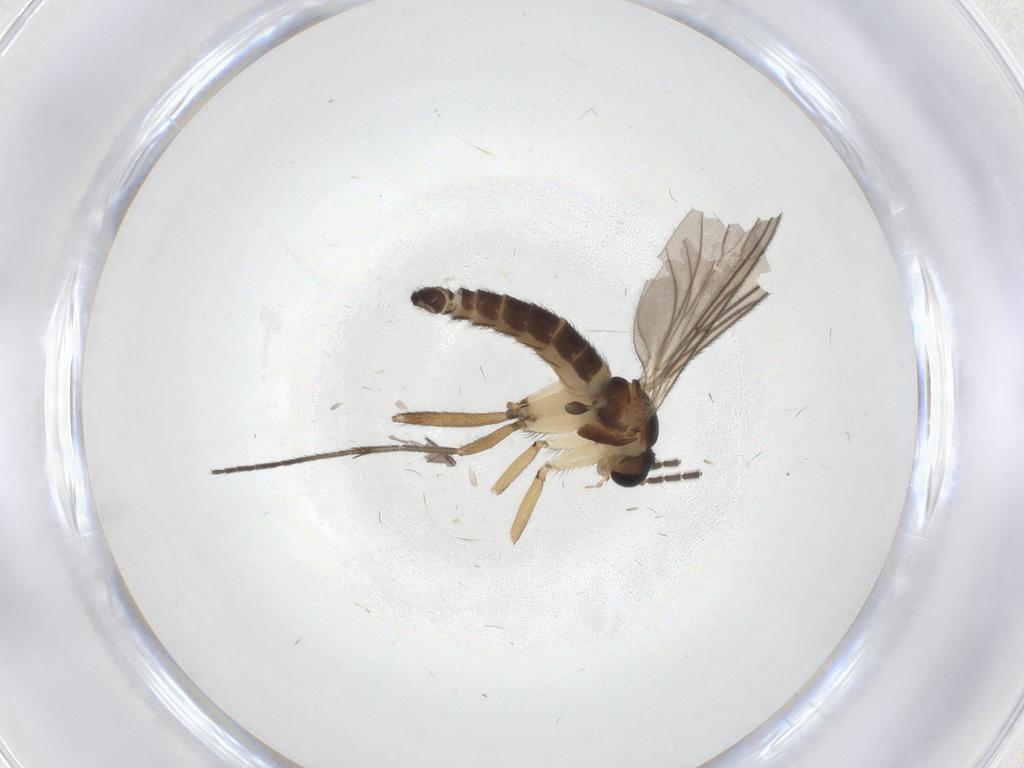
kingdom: Animalia
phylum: Arthropoda
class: Insecta
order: Diptera
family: Sciaridae
